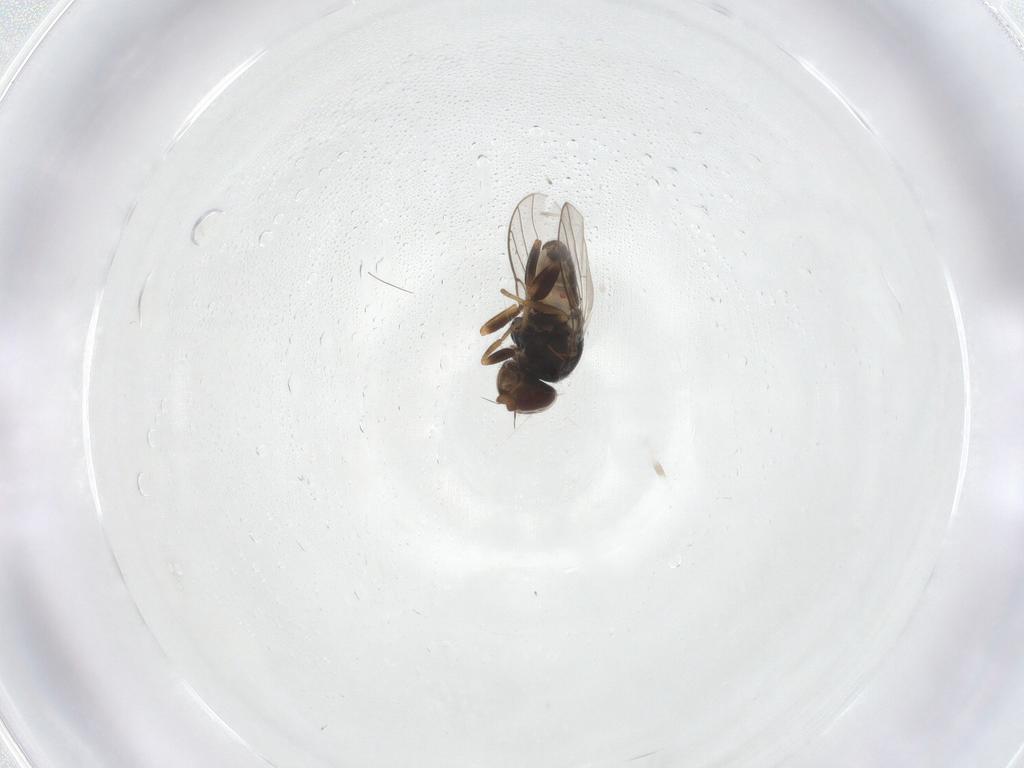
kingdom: Animalia
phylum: Arthropoda
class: Insecta
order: Diptera
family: Chloropidae
